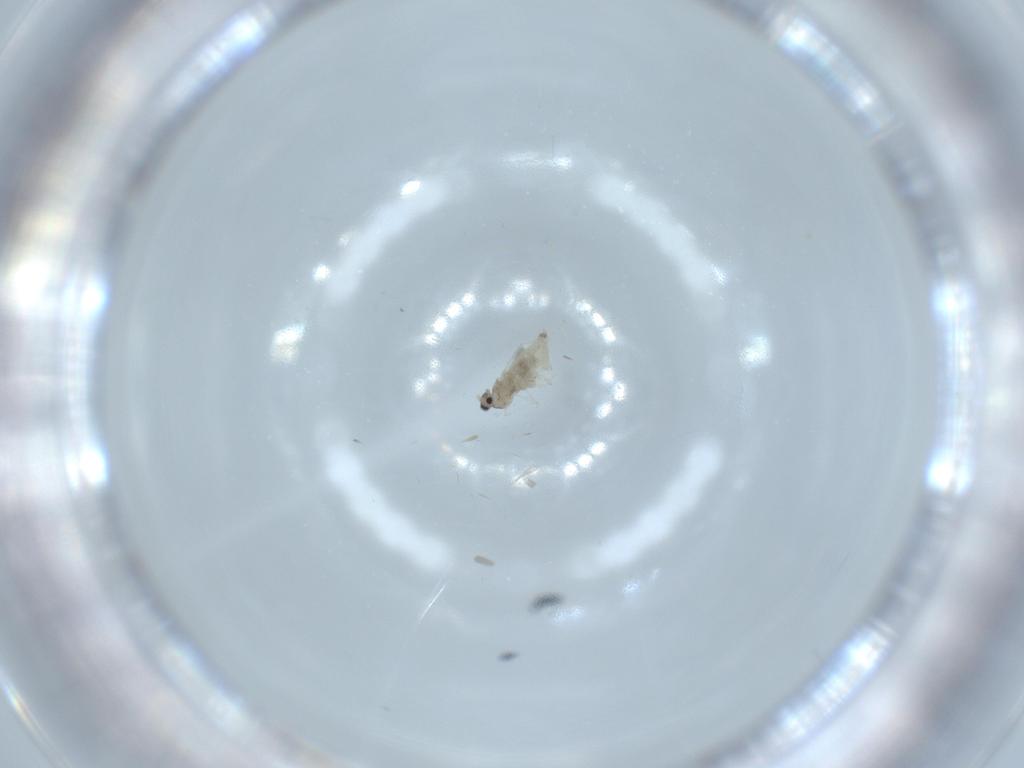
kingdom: Animalia
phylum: Arthropoda
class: Insecta
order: Diptera
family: Cecidomyiidae
